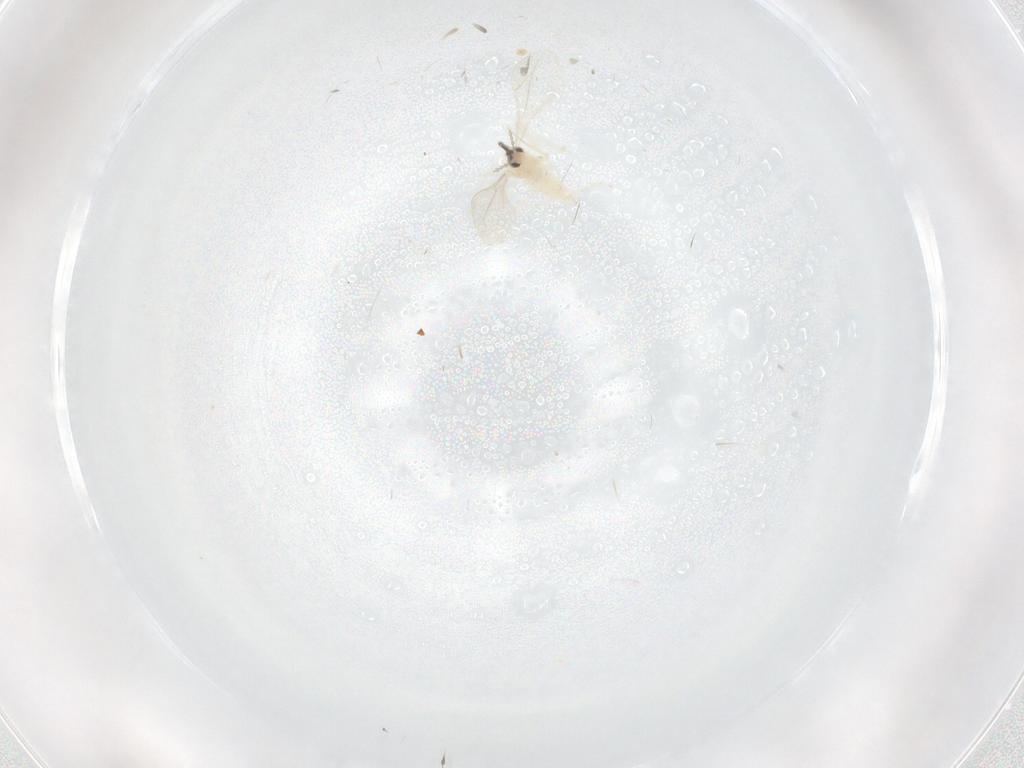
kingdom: Animalia
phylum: Arthropoda
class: Insecta
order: Diptera
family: Cecidomyiidae
